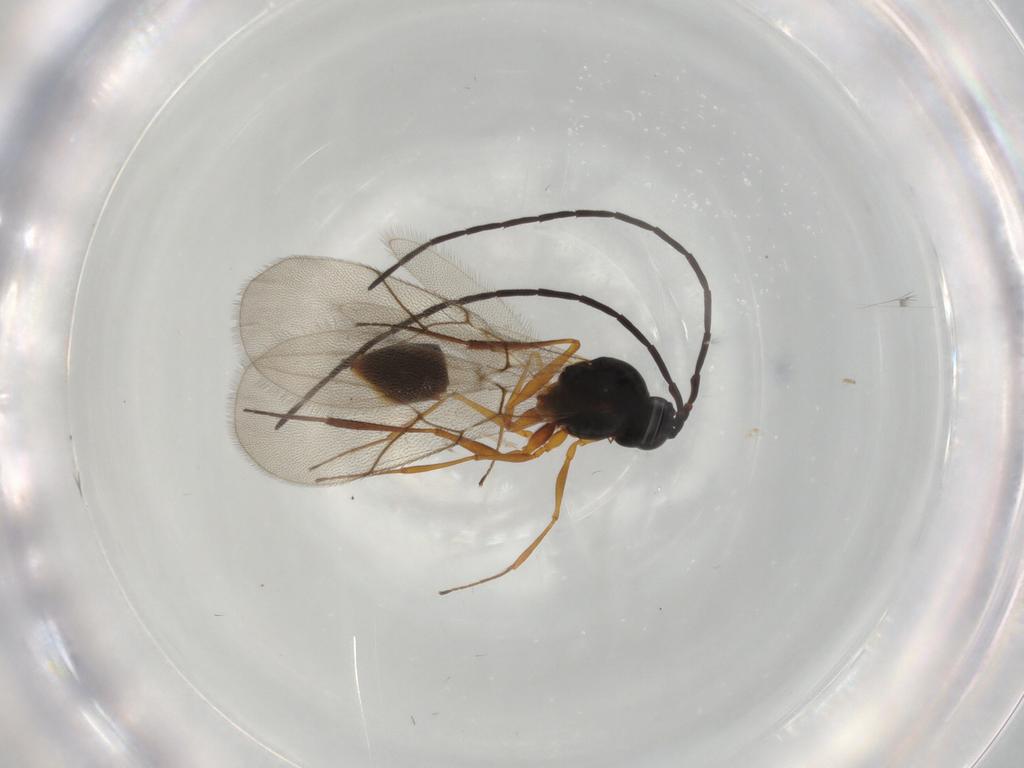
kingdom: Animalia
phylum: Arthropoda
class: Insecta
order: Hymenoptera
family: Figitidae
